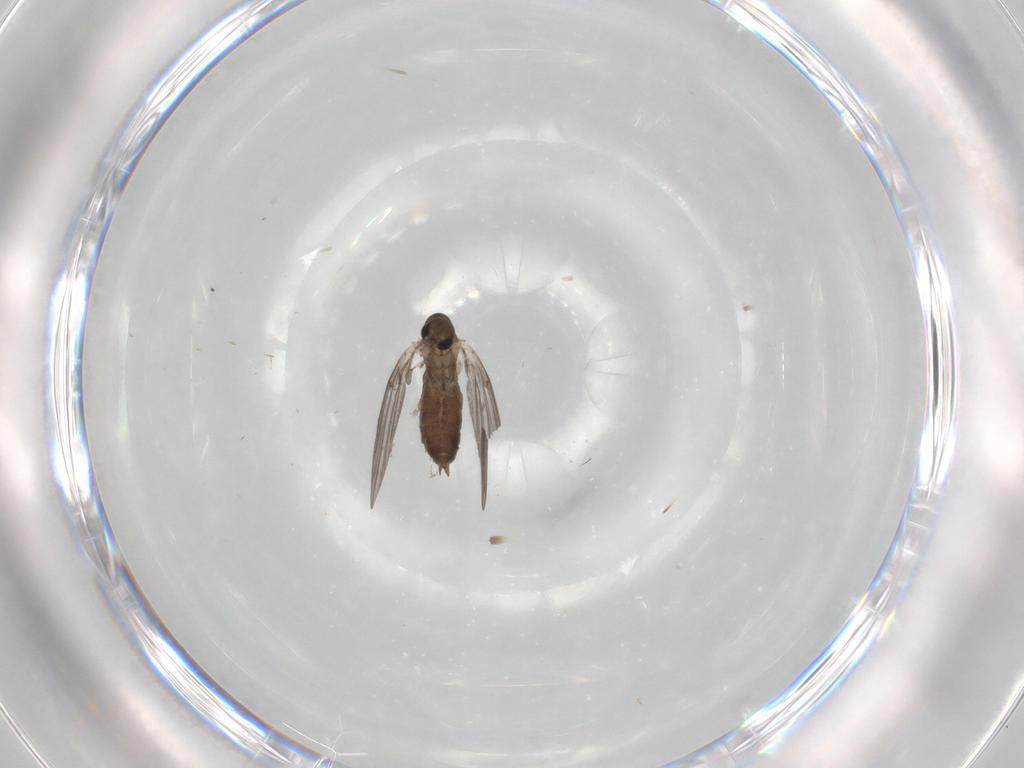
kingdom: Animalia
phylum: Arthropoda
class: Insecta
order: Diptera
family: Psychodidae
